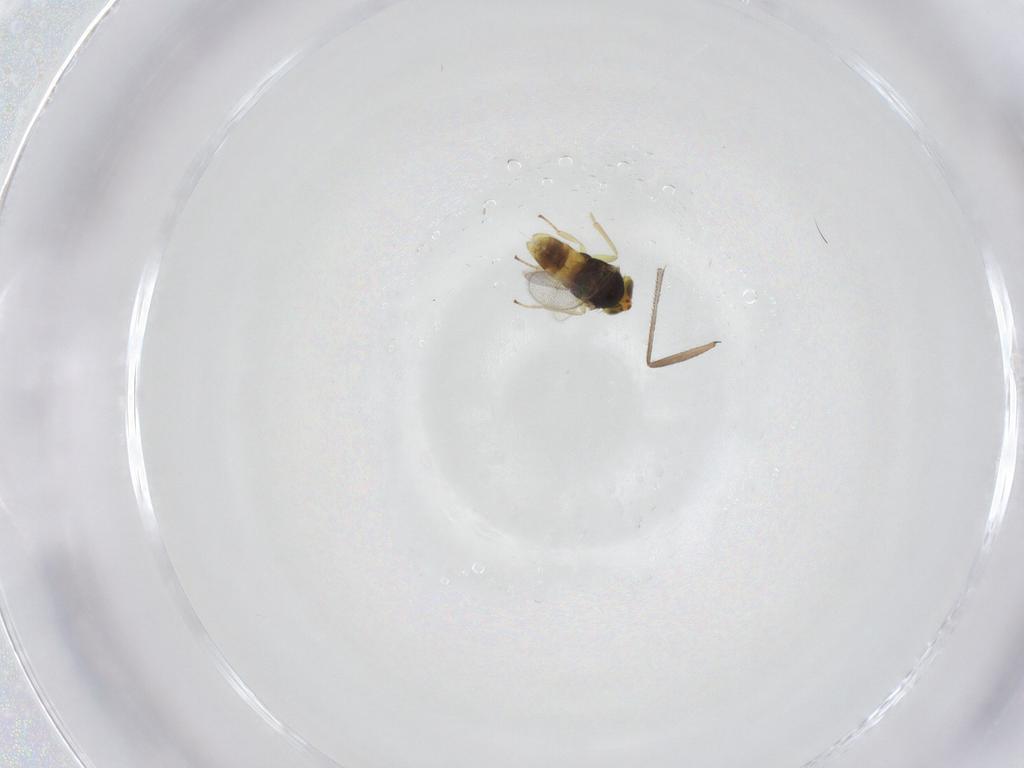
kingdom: Animalia
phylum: Arthropoda
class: Insecta
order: Hymenoptera
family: Aphelinidae
